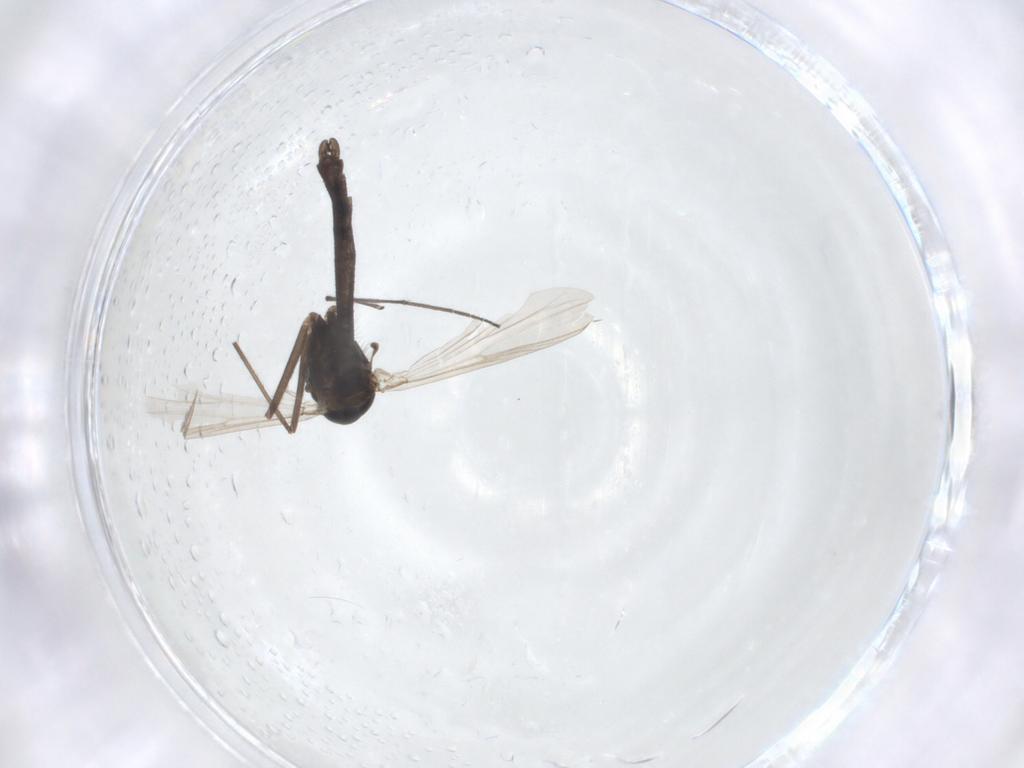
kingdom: Animalia
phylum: Arthropoda
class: Insecta
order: Diptera
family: Chironomidae
